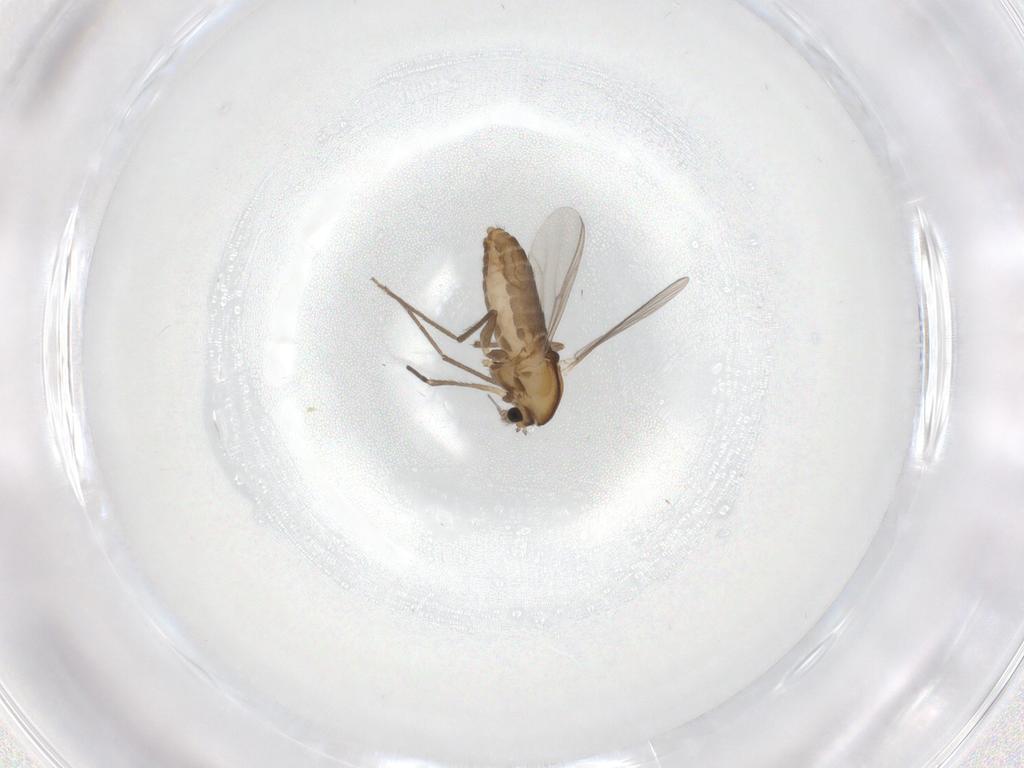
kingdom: Animalia
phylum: Arthropoda
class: Insecta
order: Diptera
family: Chironomidae
